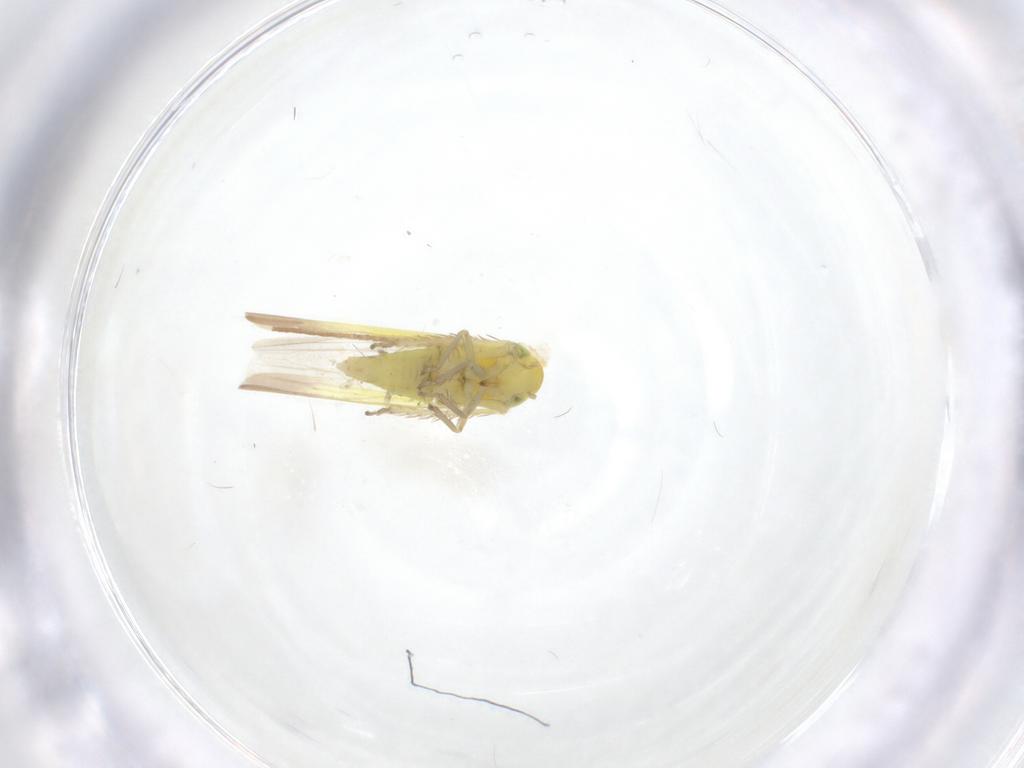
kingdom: Animalia
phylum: Arthropoda
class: Insecta
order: Hemiptera
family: Cicadellidae
